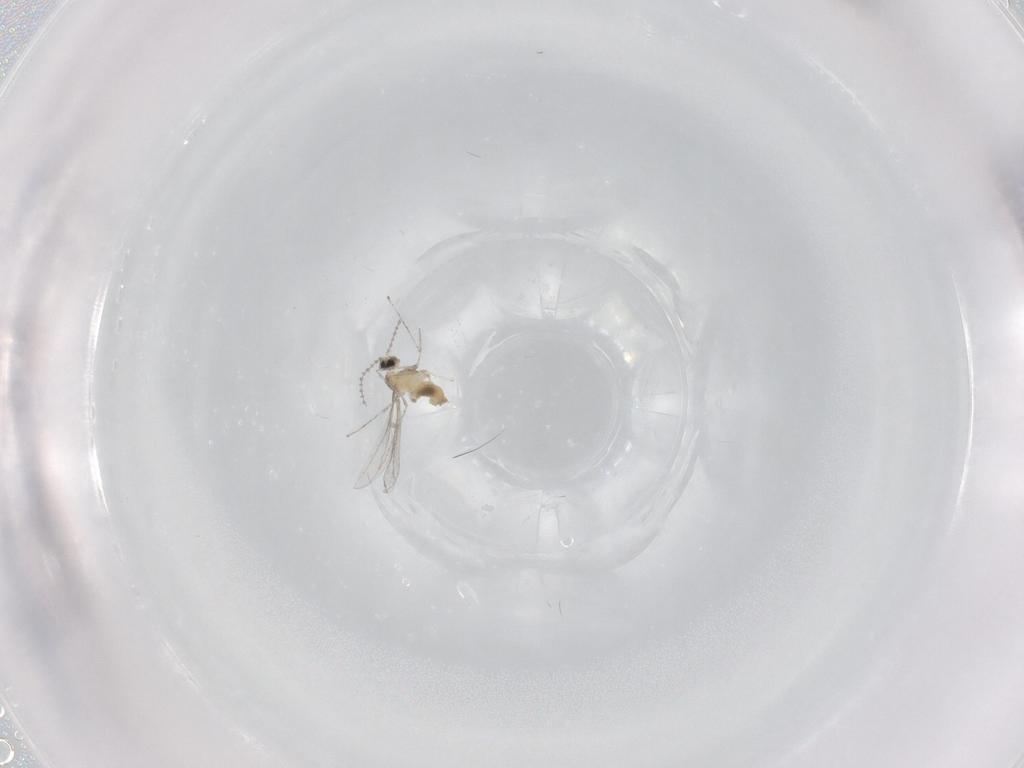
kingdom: Animalia
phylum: Arthropoda
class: Insecta
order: Diptera
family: Cecidomyiidae
